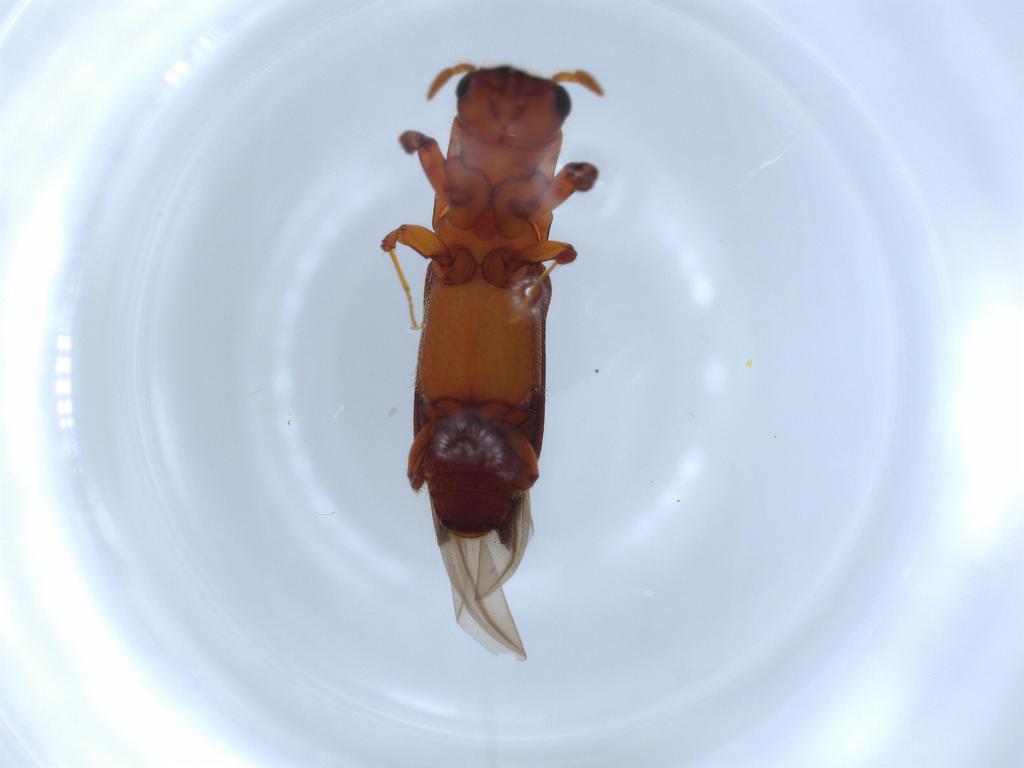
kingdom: Animalia
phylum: Arthropoda
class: Insecta
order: Coleoptera
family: Curculionidae
